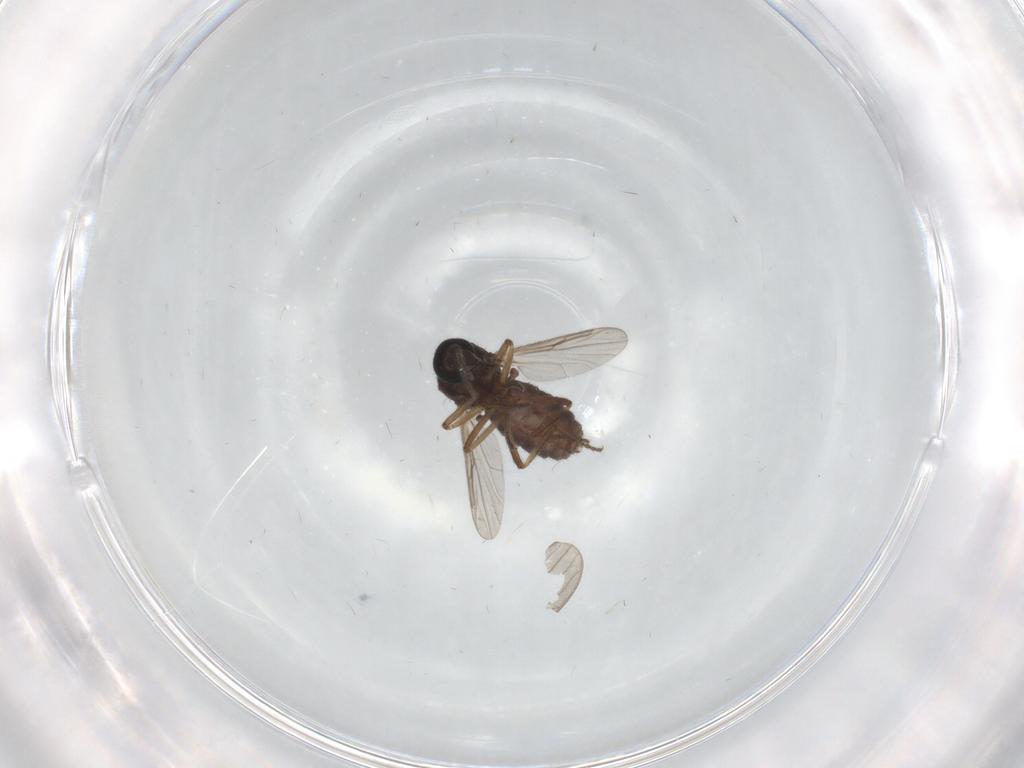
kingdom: Animalia
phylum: Arthropoda
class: Insecta
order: Diptera
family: Ceratopogonidae
